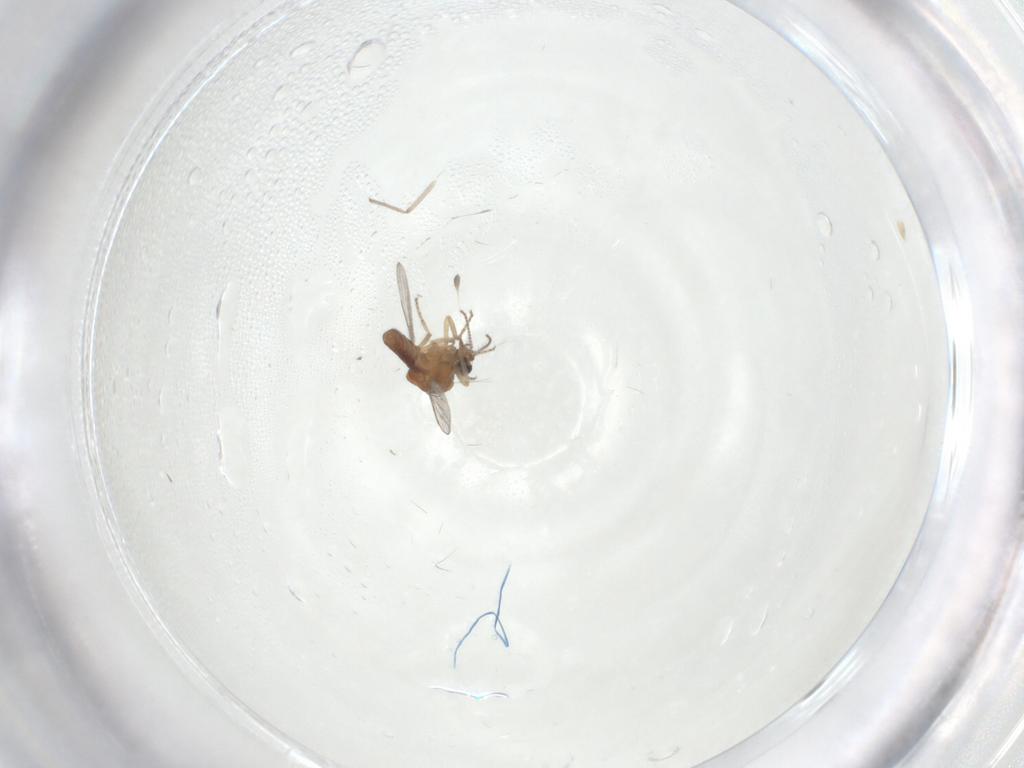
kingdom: Animalia
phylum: Arthropoda
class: Insecta
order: Diptera
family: Ceratopogonidae
